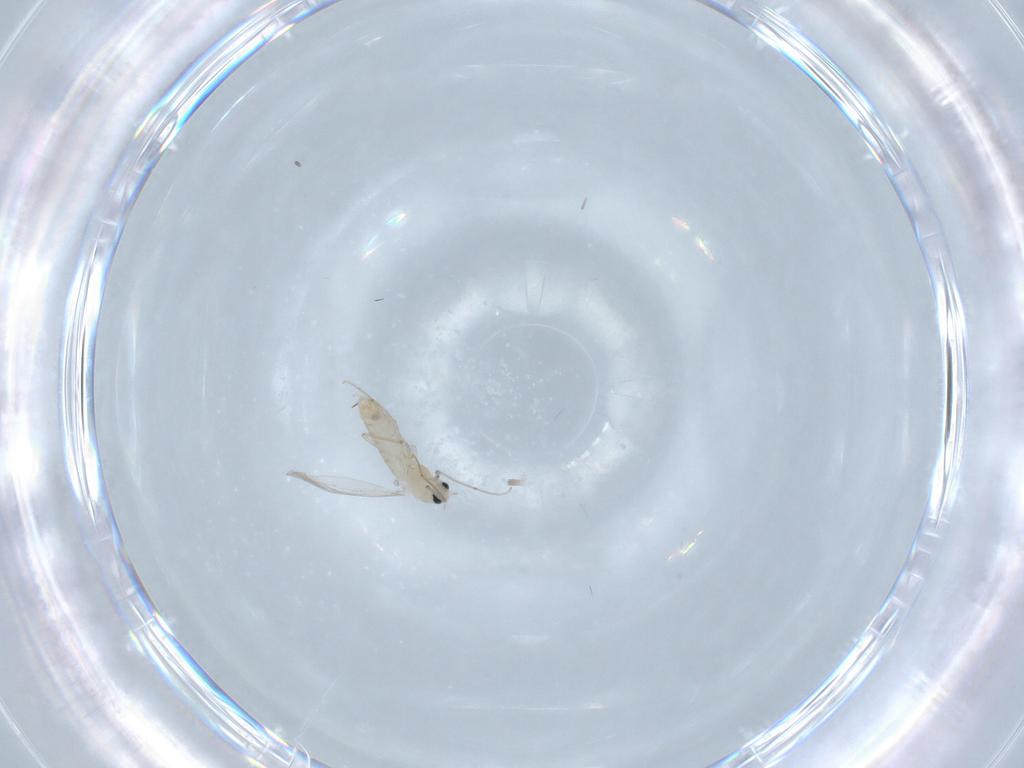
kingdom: Animalia
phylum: Arthropoda
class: Insecta
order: Diptera
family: Chironomidae
